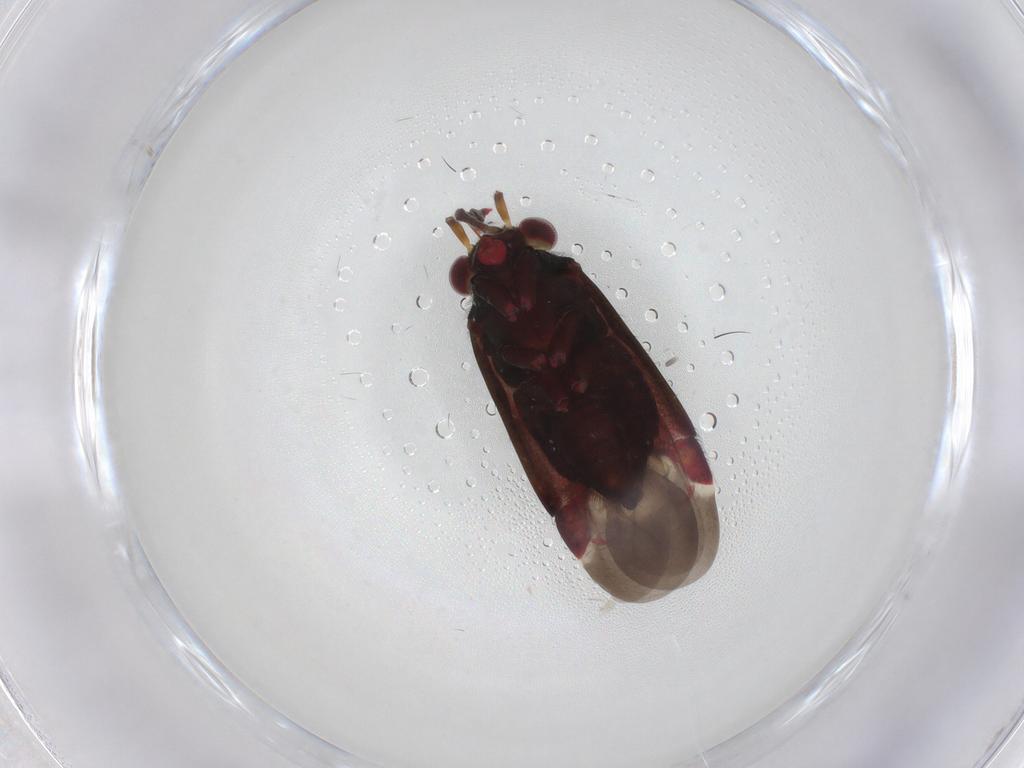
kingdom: Animalia
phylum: Arthropoda
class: Insecta
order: Hemiptera
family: Miridae
